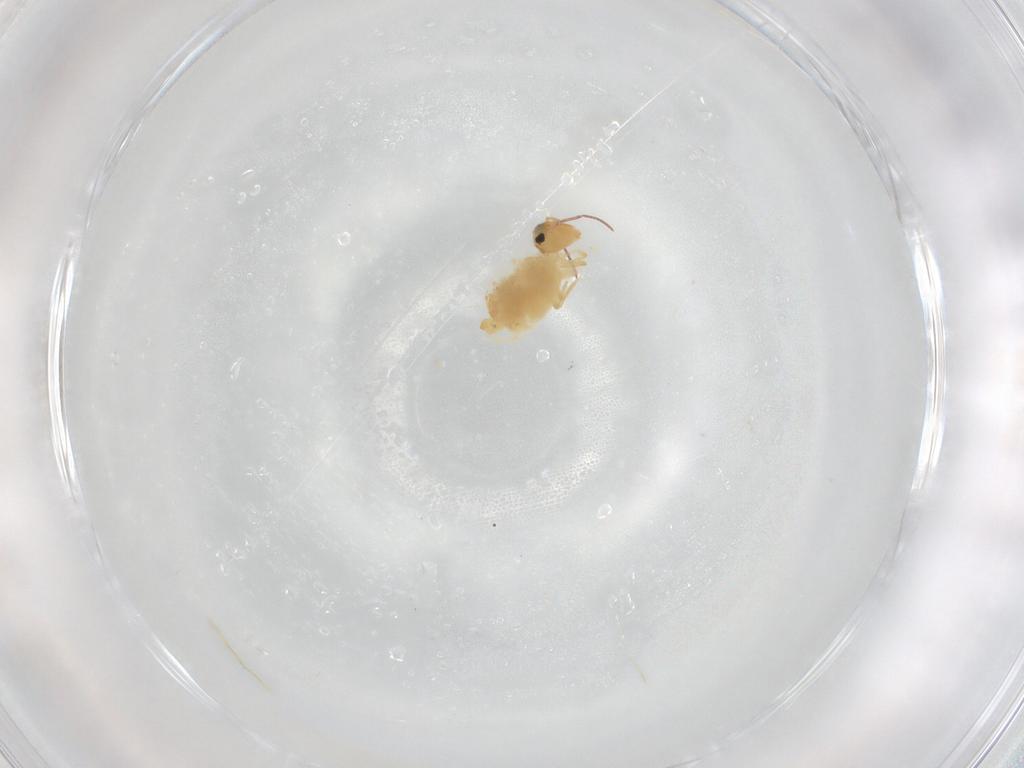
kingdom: Animalia
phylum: Arthropoda
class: Collembola
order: Symphypleona
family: Bourletiellidae
